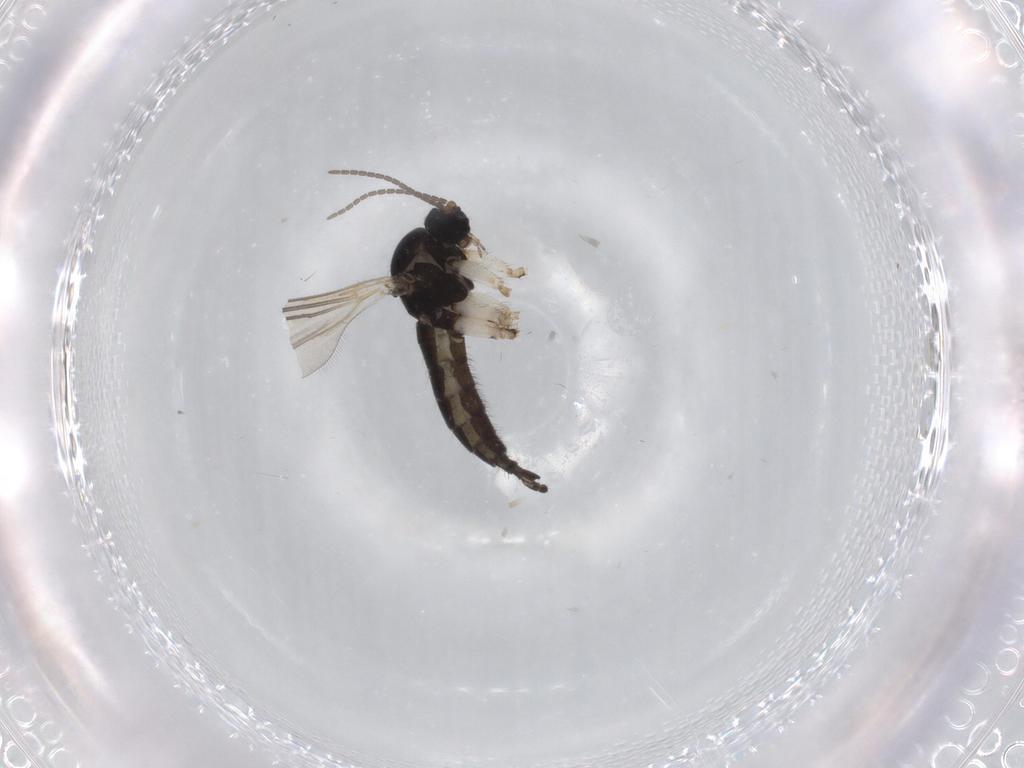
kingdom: Animalia
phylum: Arthropoda
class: Insecta
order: Diptera
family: Sciaridae
